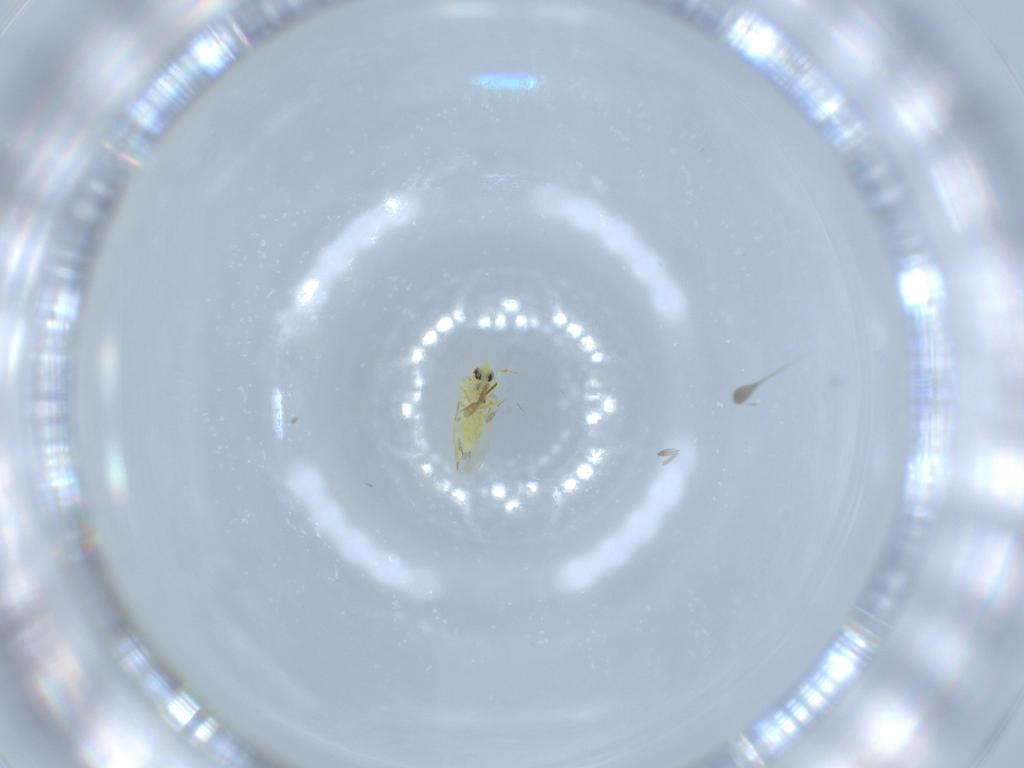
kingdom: Animalia
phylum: Arthropoda
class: Insecta
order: Hemiptera
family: Aleyrodidae
